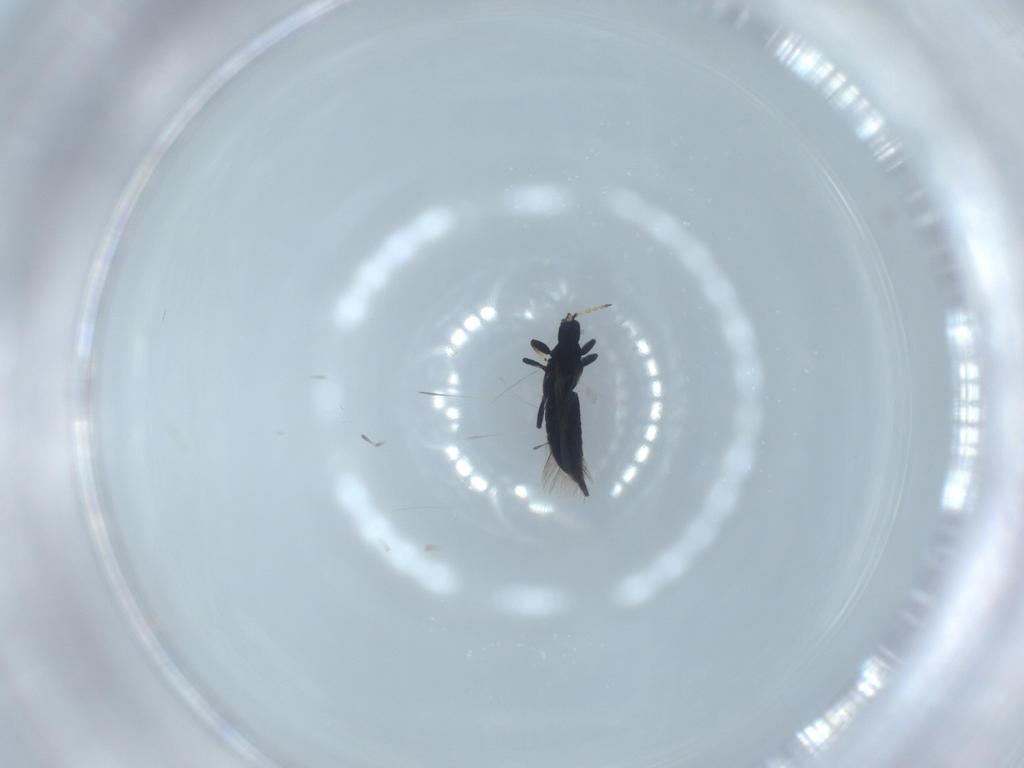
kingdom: Animalia
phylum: Arthropoda
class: Insecta
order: Thysanoptera
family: Phlaeothripidae
